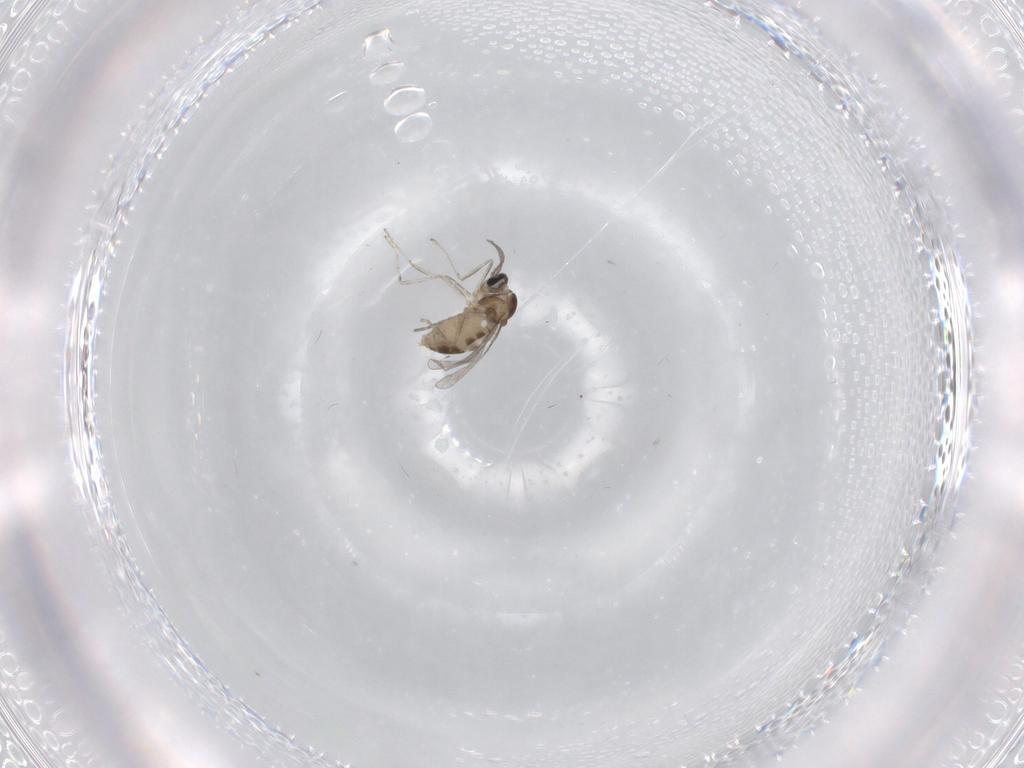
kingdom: Animalia
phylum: Arthropoda
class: Insecta
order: Diptera
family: Cecidomyiidae
